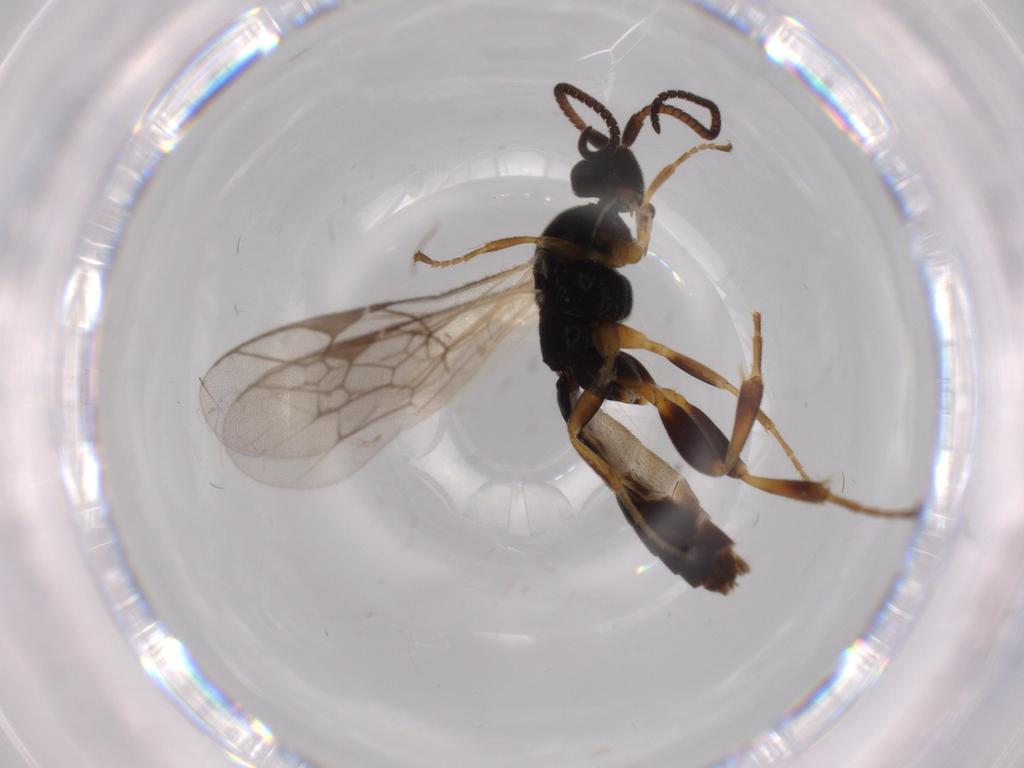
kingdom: Animalia
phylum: Arthropoda
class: Insecta
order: Hymenoptera
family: Ichneumonidae
